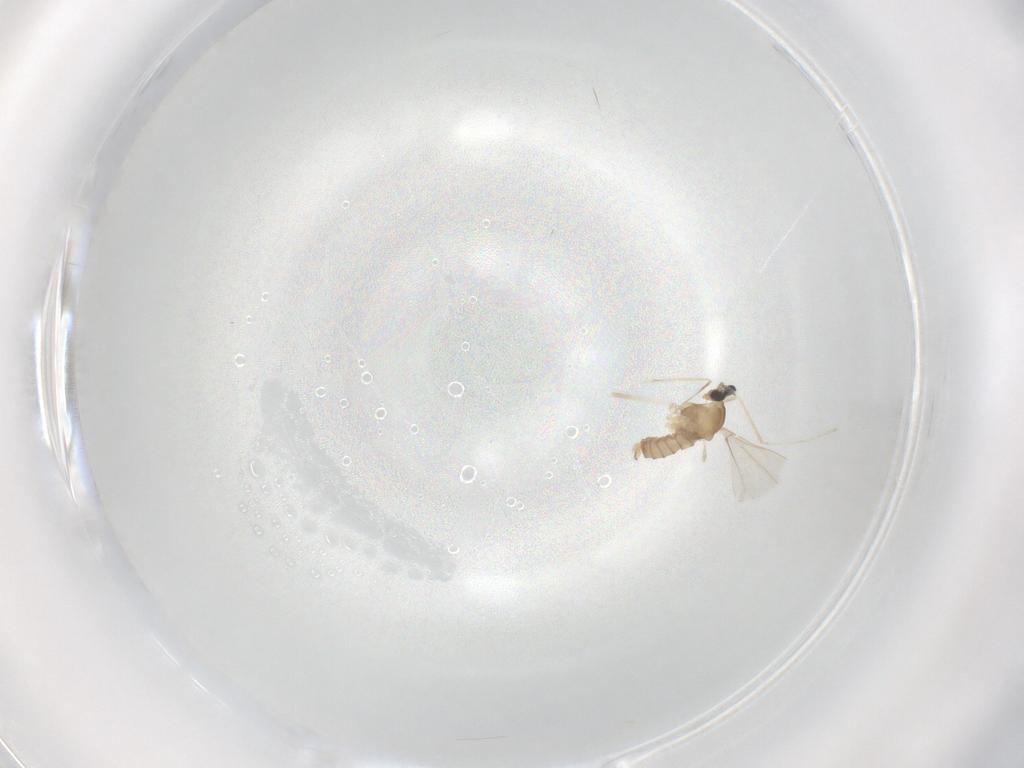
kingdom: Animalia
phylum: Arthropoda
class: Insecta
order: Diptera
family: Cecidomyiidae
